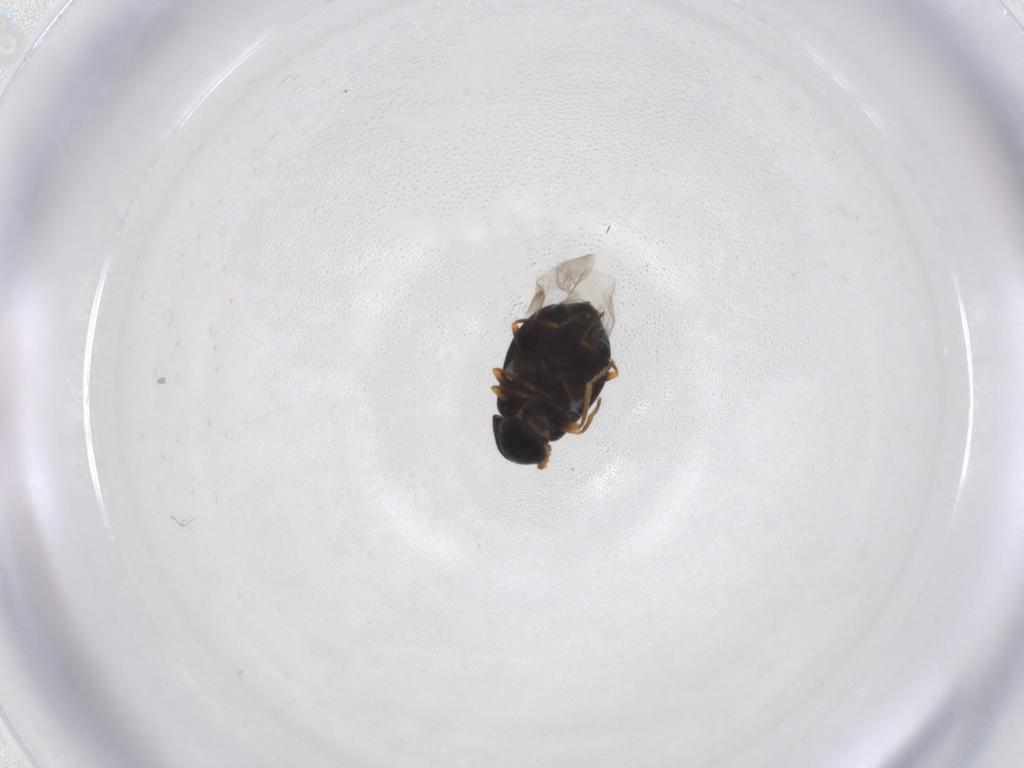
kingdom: Animalia
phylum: Arthropoda
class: Insecta
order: Coleoptera
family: Melyridae
